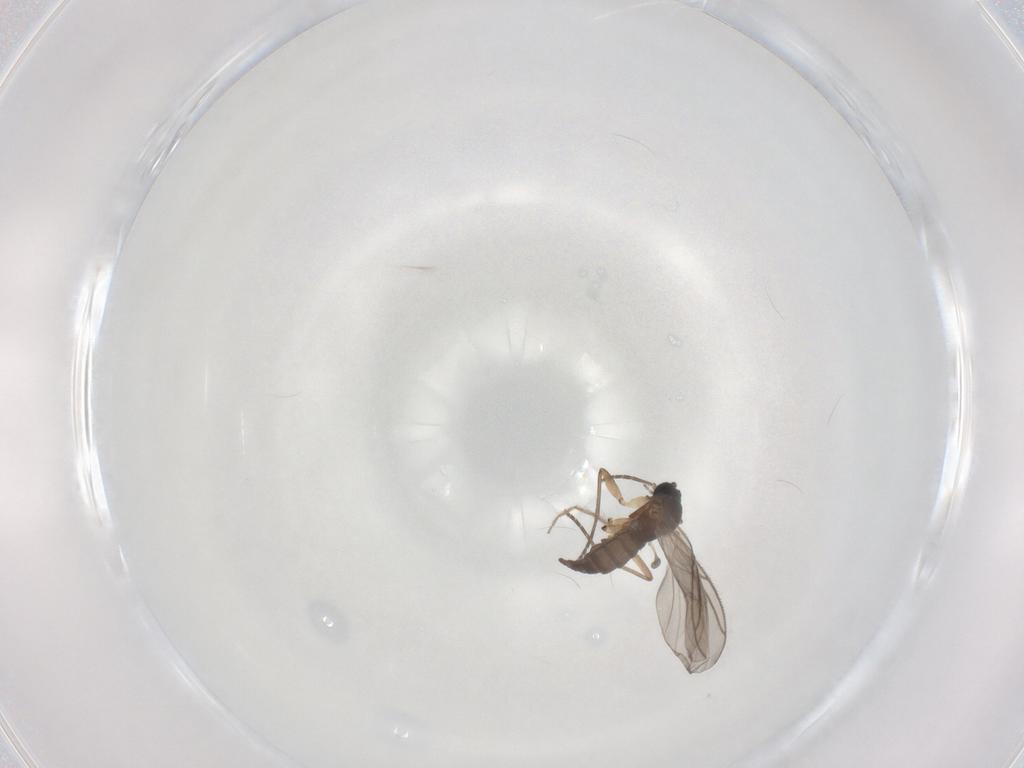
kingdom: Animalia
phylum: Arthropoda
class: Insecta
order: Diptera
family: Sciaridae
